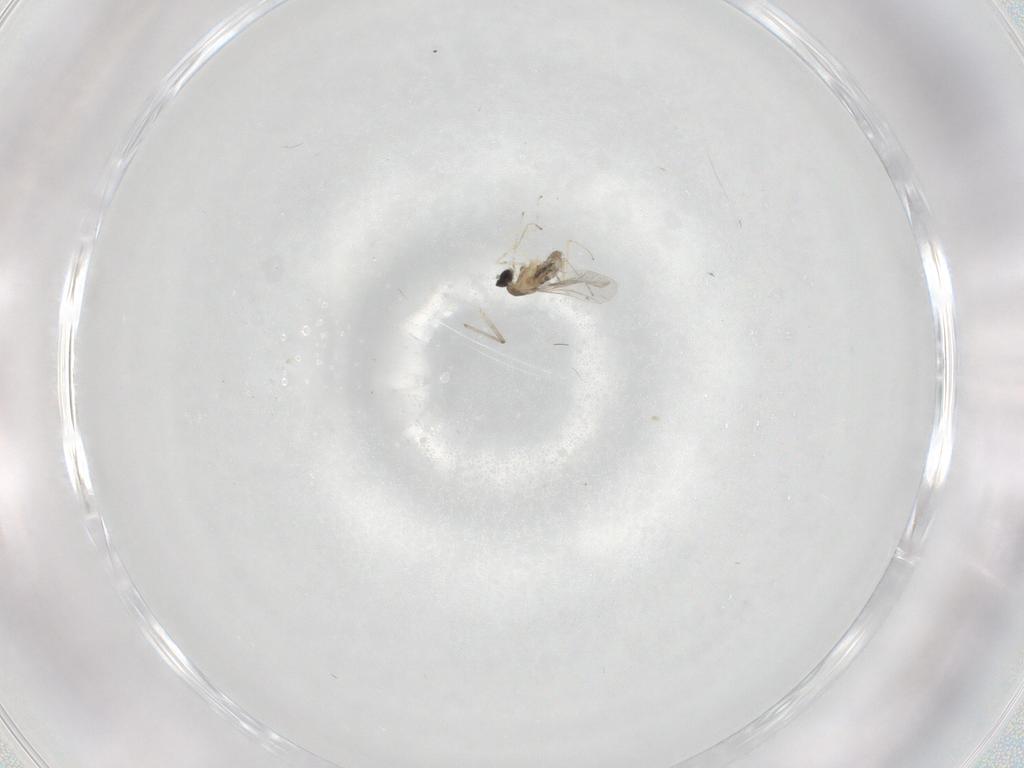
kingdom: Animalia
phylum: Arthropoda
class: Insecta
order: Diptera
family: Cecidomyiidae
